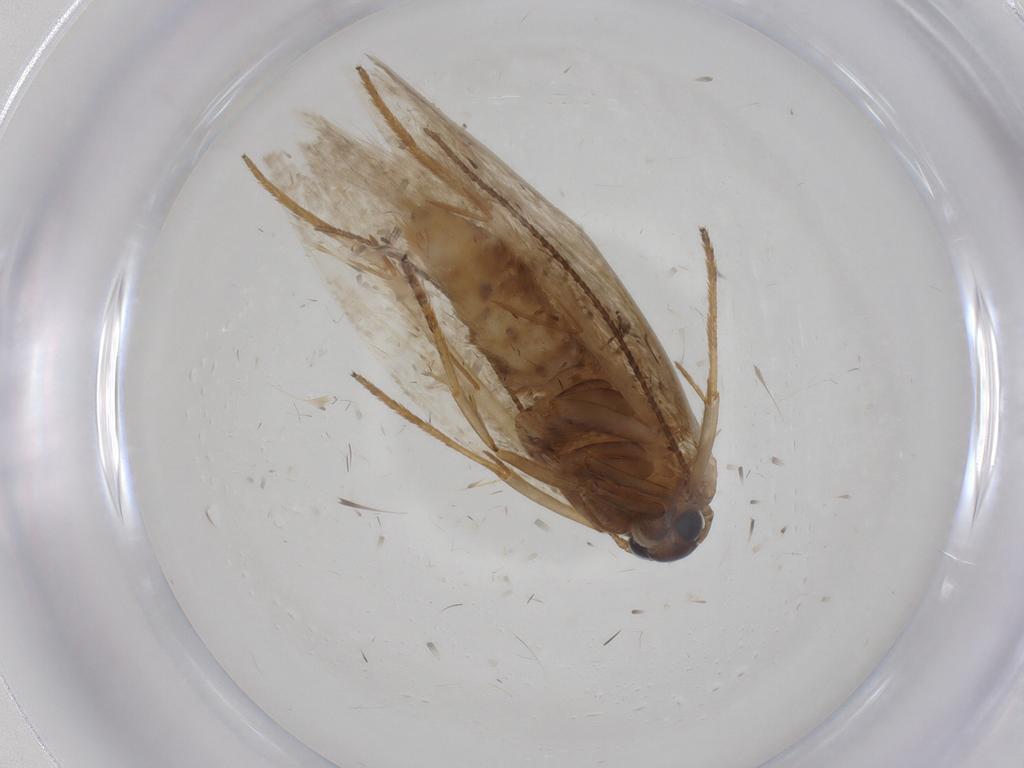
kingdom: Animalia
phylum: Arthropoda
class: Insecta
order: Lepidoptera
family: Erebidae
